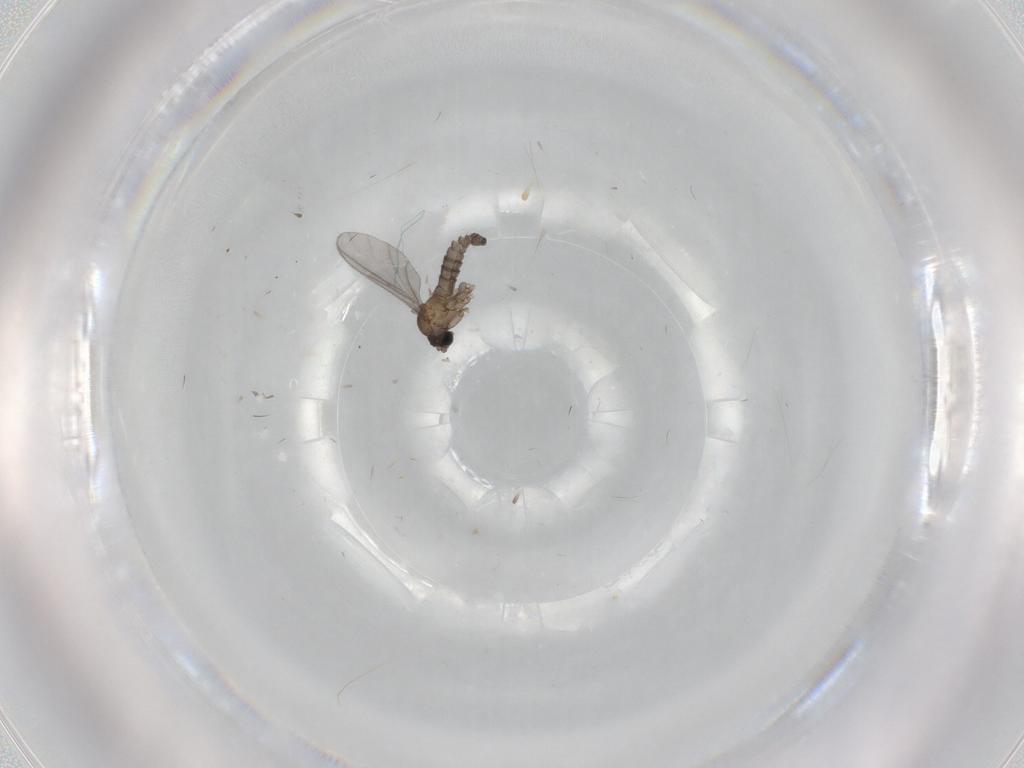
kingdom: Animalia
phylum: Arthropoda
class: Insecta
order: Diptera
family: Sciaridae
